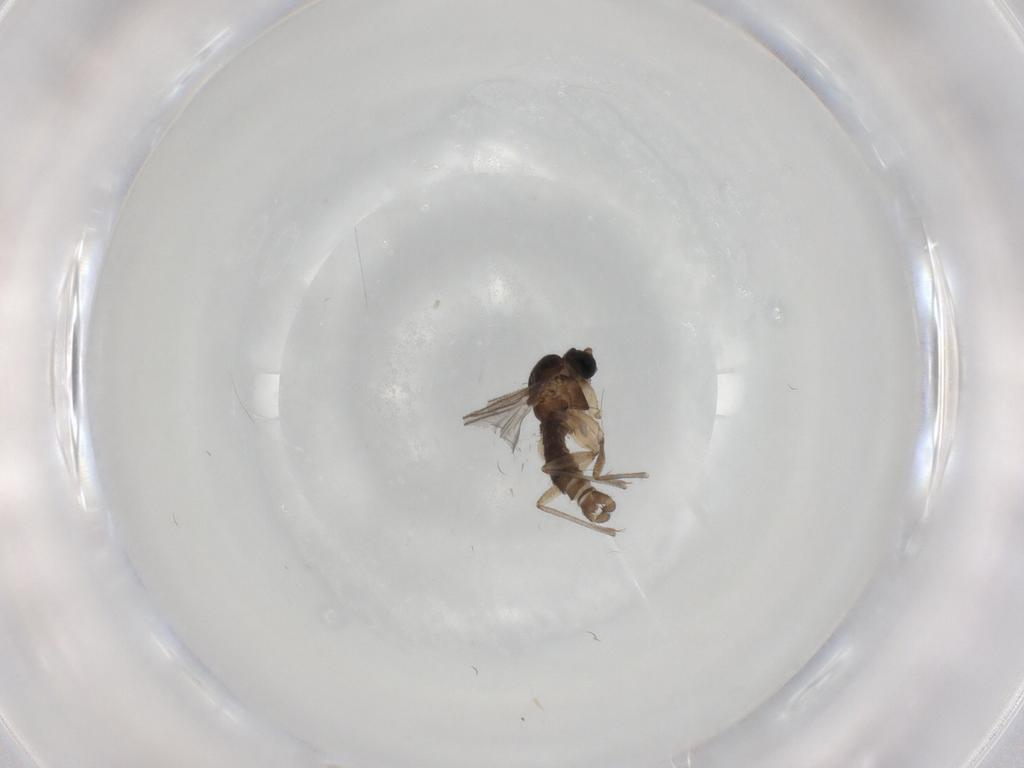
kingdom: Animalia
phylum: Arthropoda
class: Insecta
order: Diptera
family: Sciaridae
